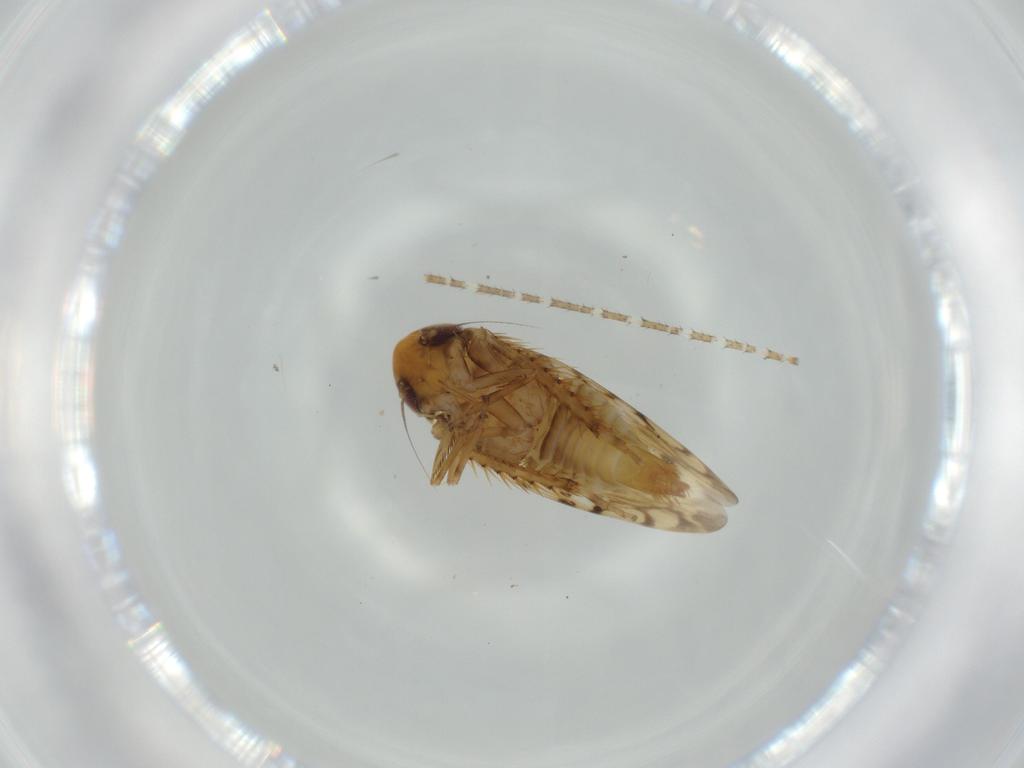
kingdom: Animalia
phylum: Arthropoda
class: Insecta
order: Hemiptera
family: Cicadellidae
